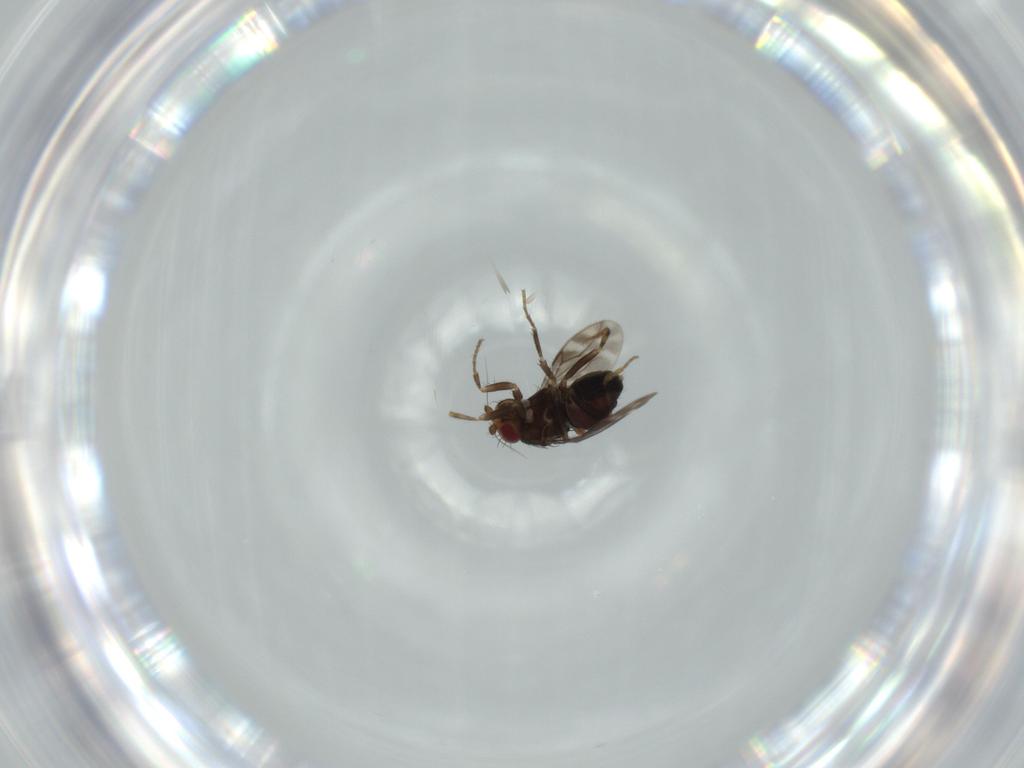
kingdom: Animalia
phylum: Arthropoda
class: Insecta
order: Diptera
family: Sphaeroceridae
